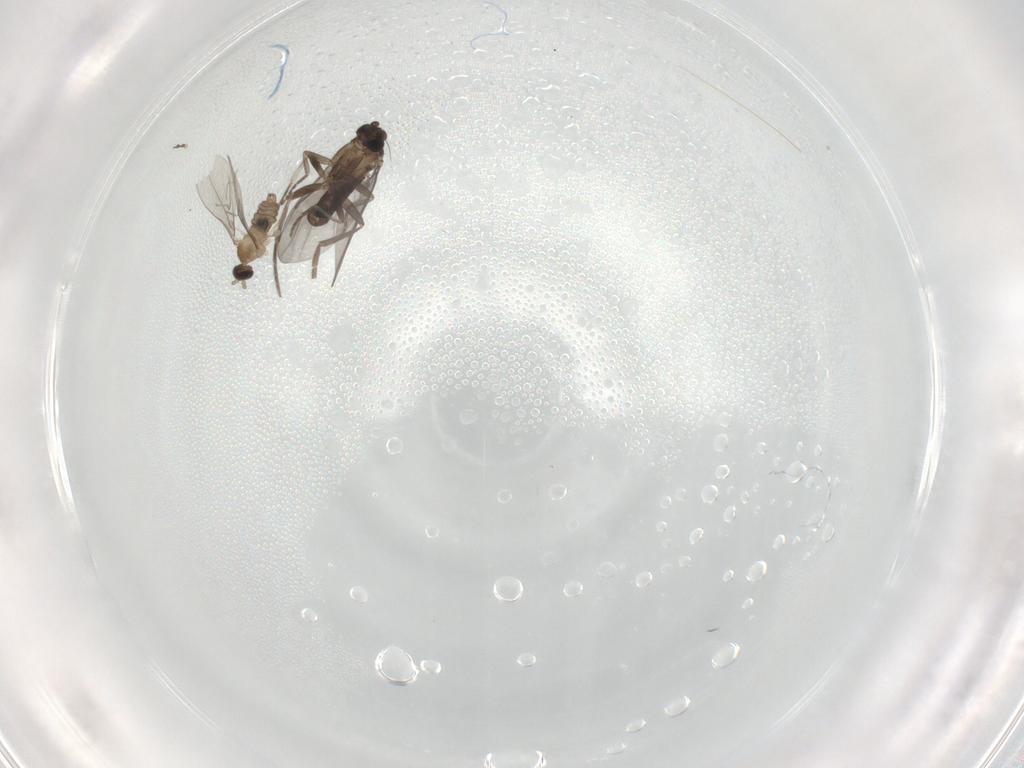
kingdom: Animalia
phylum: Arthropoda
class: Insecta
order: Diptera
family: Cecidomyiidae
